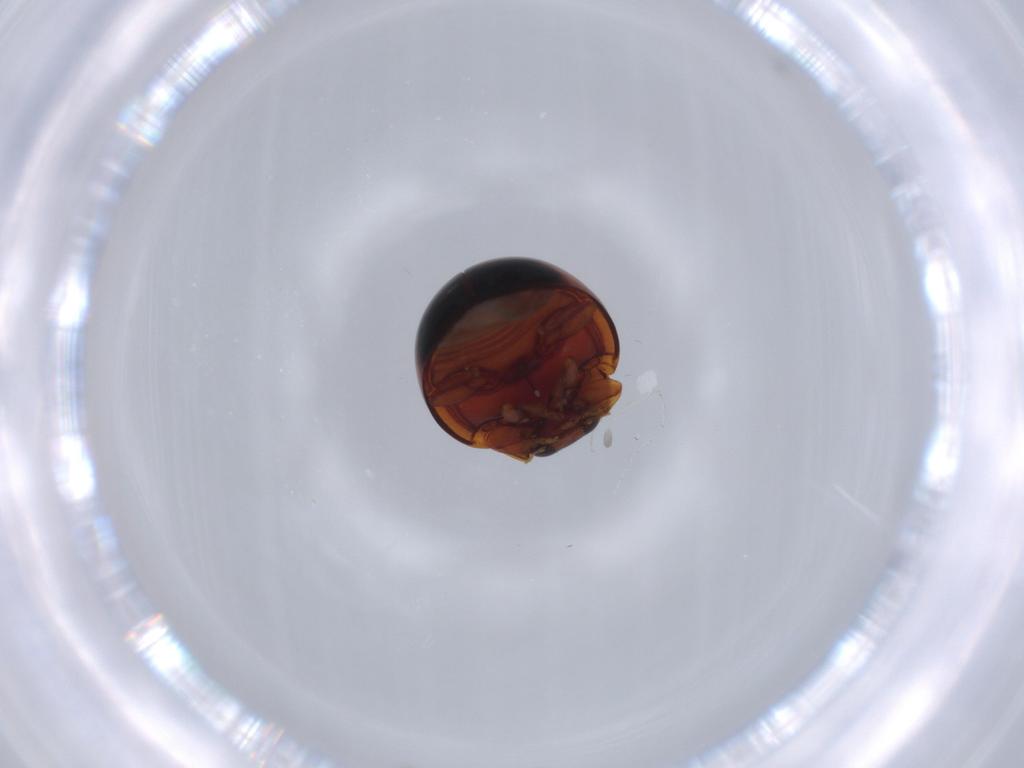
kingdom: Animalia
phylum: Arthropoda
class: Insecta
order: Coleoptera
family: Coccinellidae
